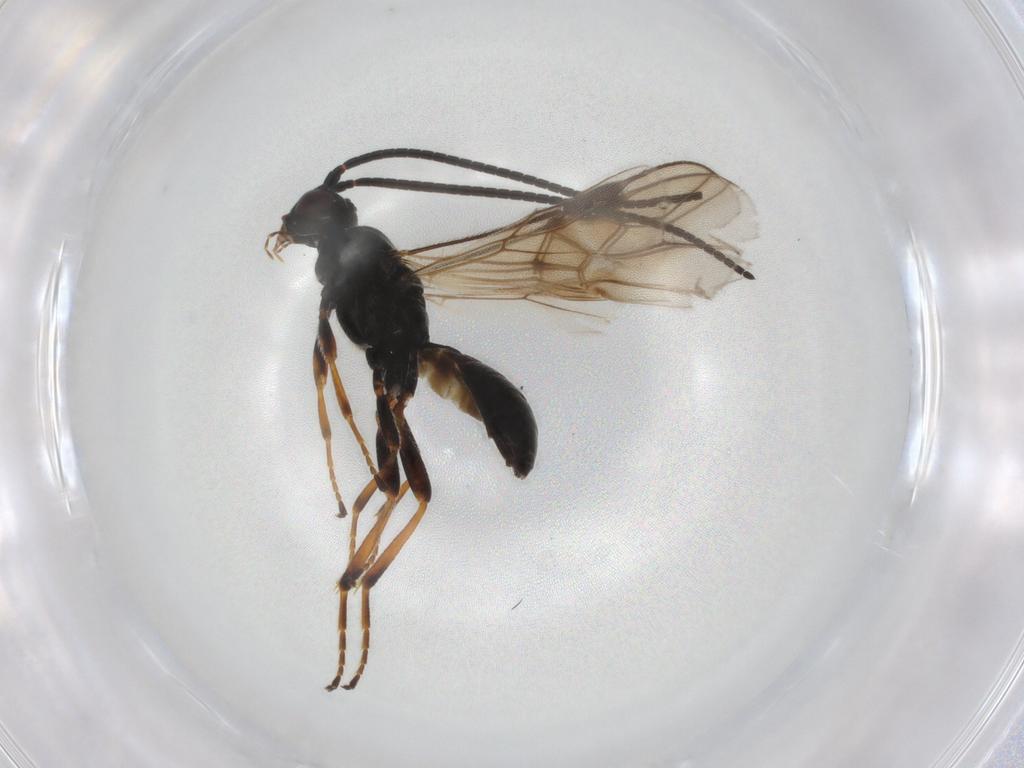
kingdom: Animalia
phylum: Arthropoda
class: Insecta
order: Hymenoptera
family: Braconidae
